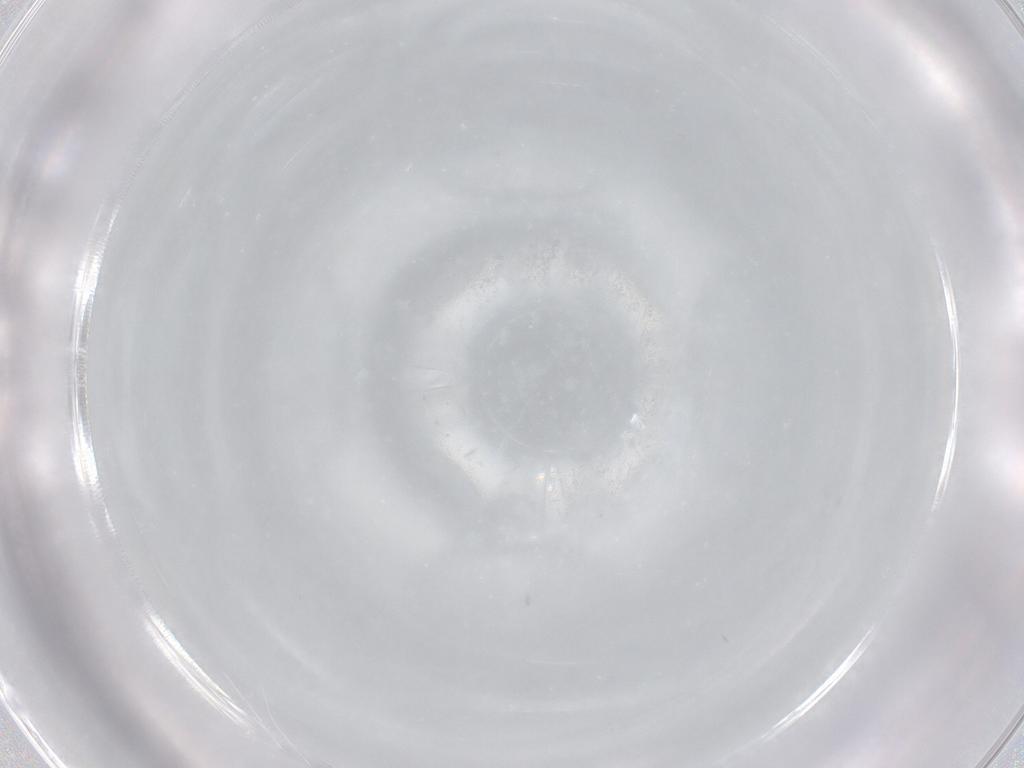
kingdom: Animalia
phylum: Arthropoda
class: Insecta
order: Diptera
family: Phoridae
